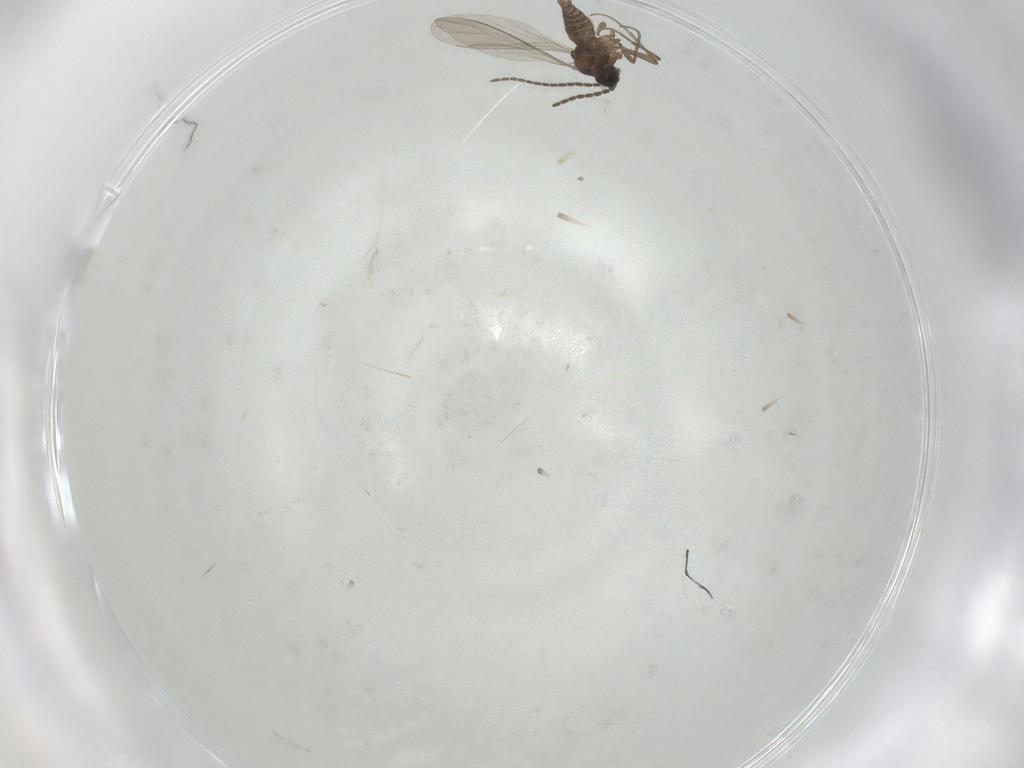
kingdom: Animalia
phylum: Arthropoda
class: Insecta
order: Diptera
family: Sciaridae
